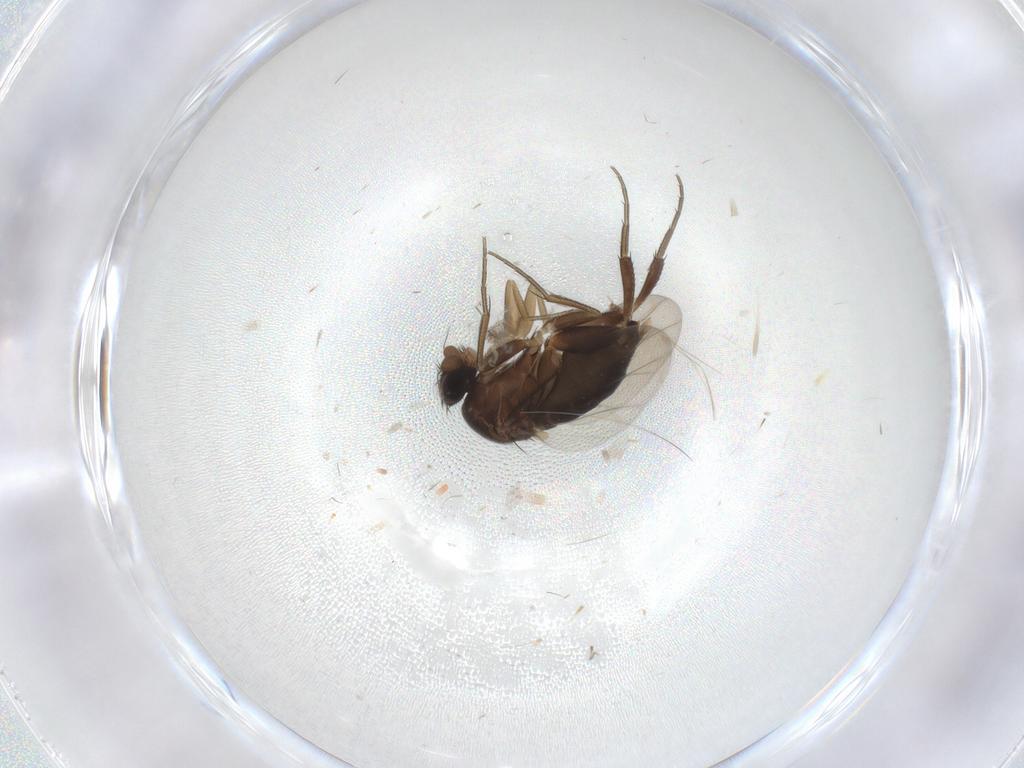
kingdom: Animalia
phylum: Arthropoda
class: Insecta
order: Diptera
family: Phoridae
